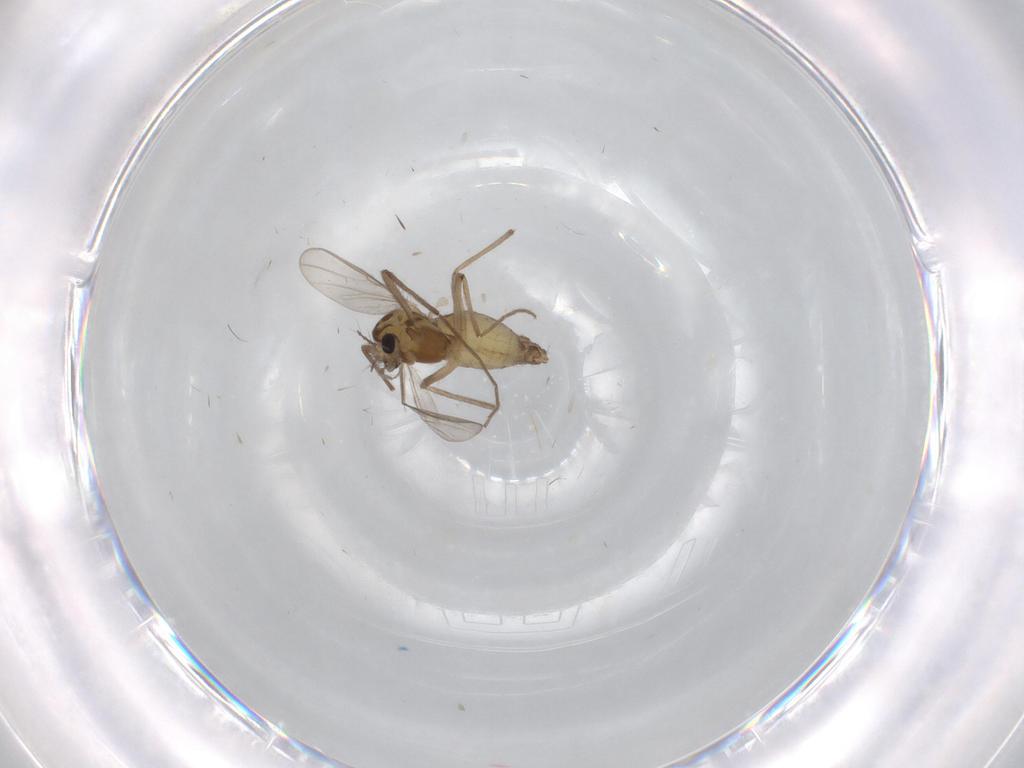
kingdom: Animalia
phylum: Arthropoda
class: Insecta
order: Diptera
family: Chironomidae
